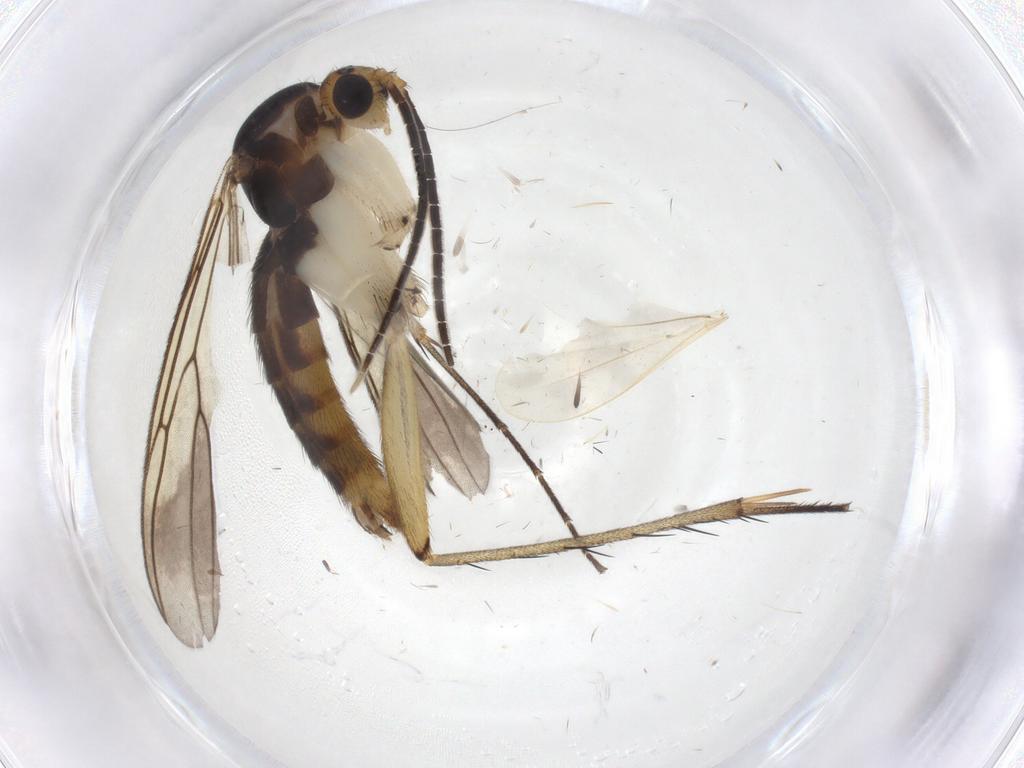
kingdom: Animalia
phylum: Arthropoda
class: Insecta
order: Diptera
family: Mycetophilidae
